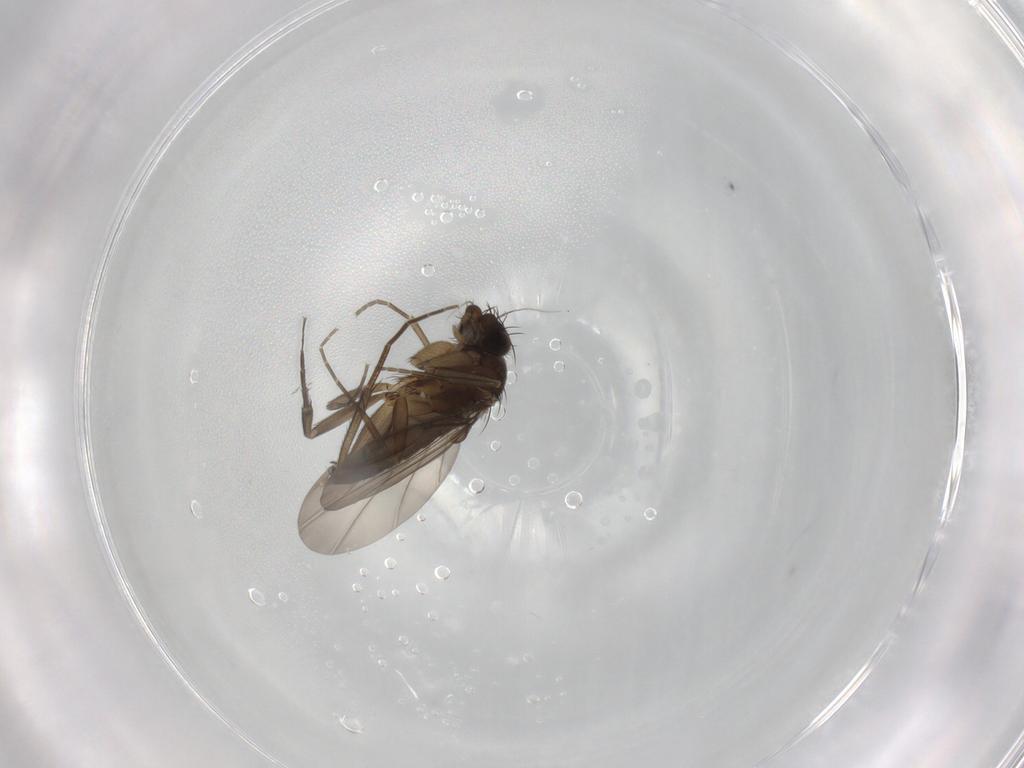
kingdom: Animalia
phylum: Arthropoda
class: Insecta
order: Diptera
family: Phoridae
